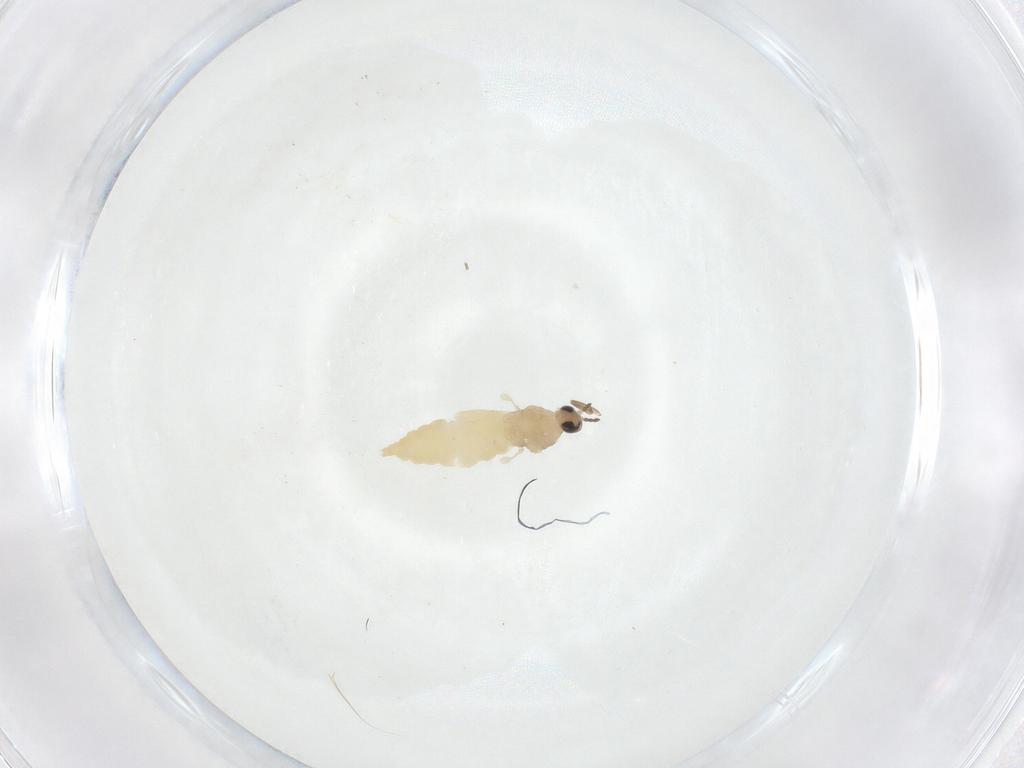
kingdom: Animalia
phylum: Arthropoda
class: Insecta
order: Diptera
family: Cecidomyiidae
